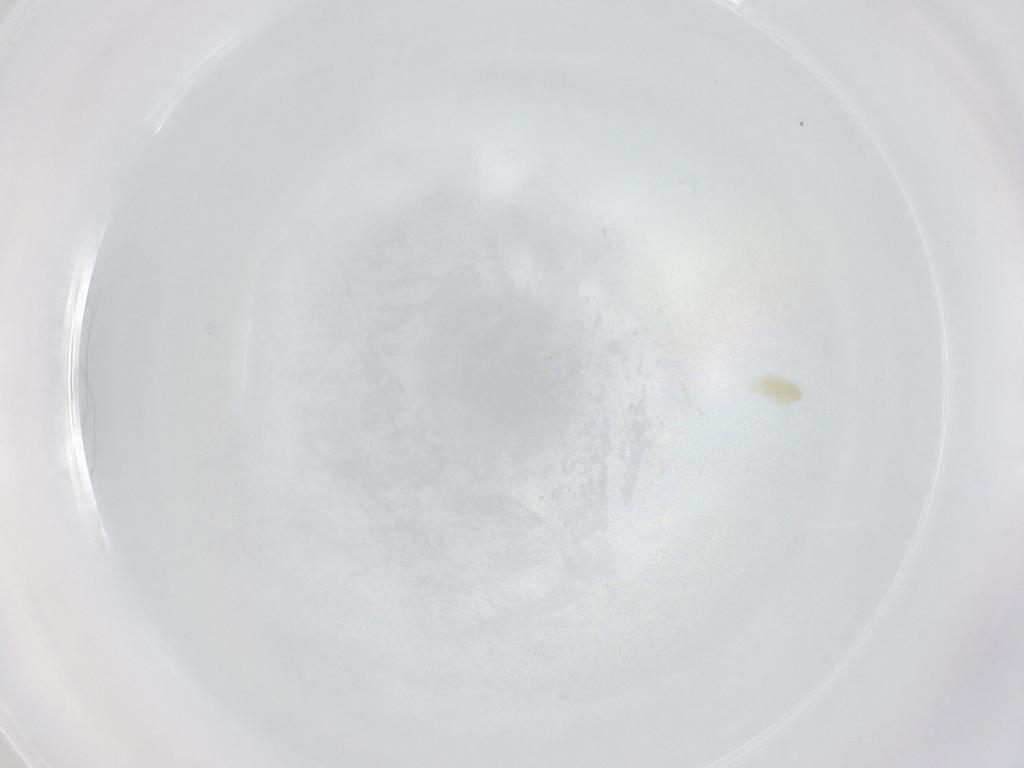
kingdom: Animalia
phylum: Arthropoda
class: Arachnida
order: Trombidiformes
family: Eupodidae
